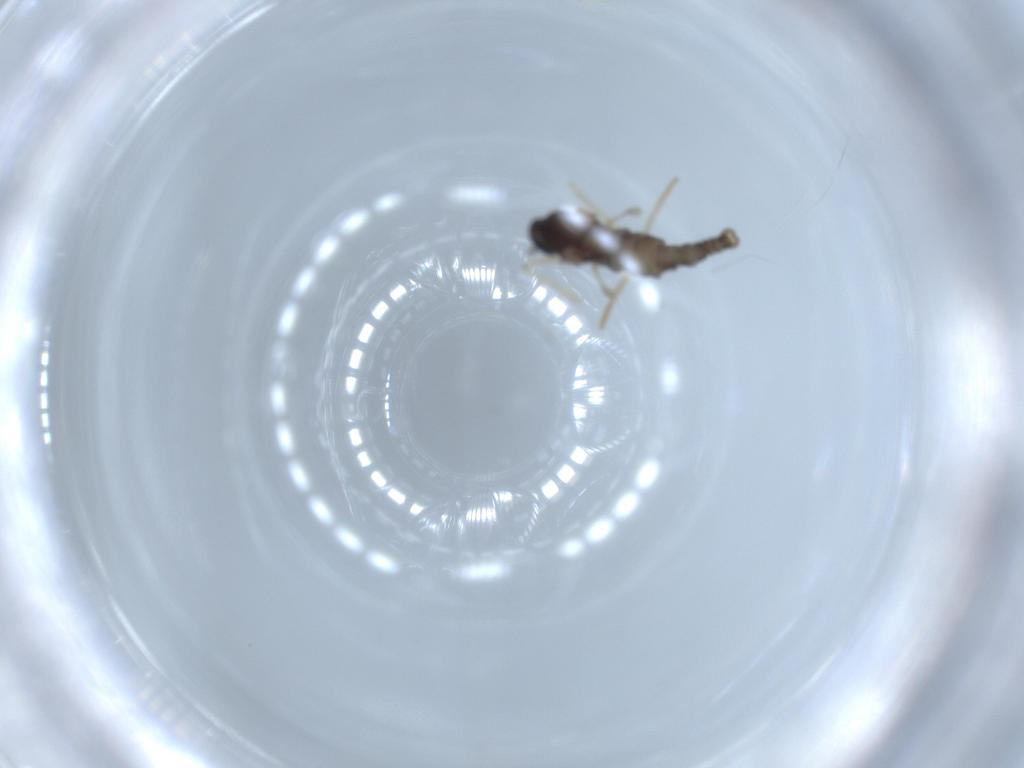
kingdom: Animalia
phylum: Arthropoda
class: Insecta
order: Diptera
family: Cecidomyiidae
